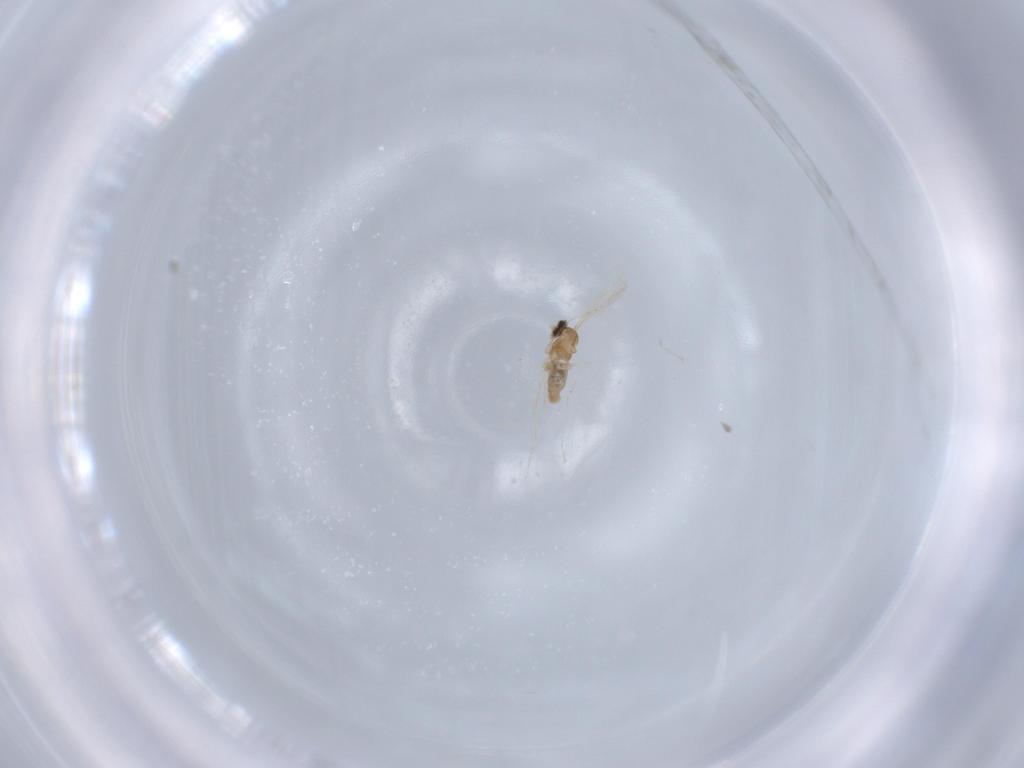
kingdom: Animalia
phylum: Arthropoda
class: Insecta
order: Diptera
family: Cecidomyiidae
